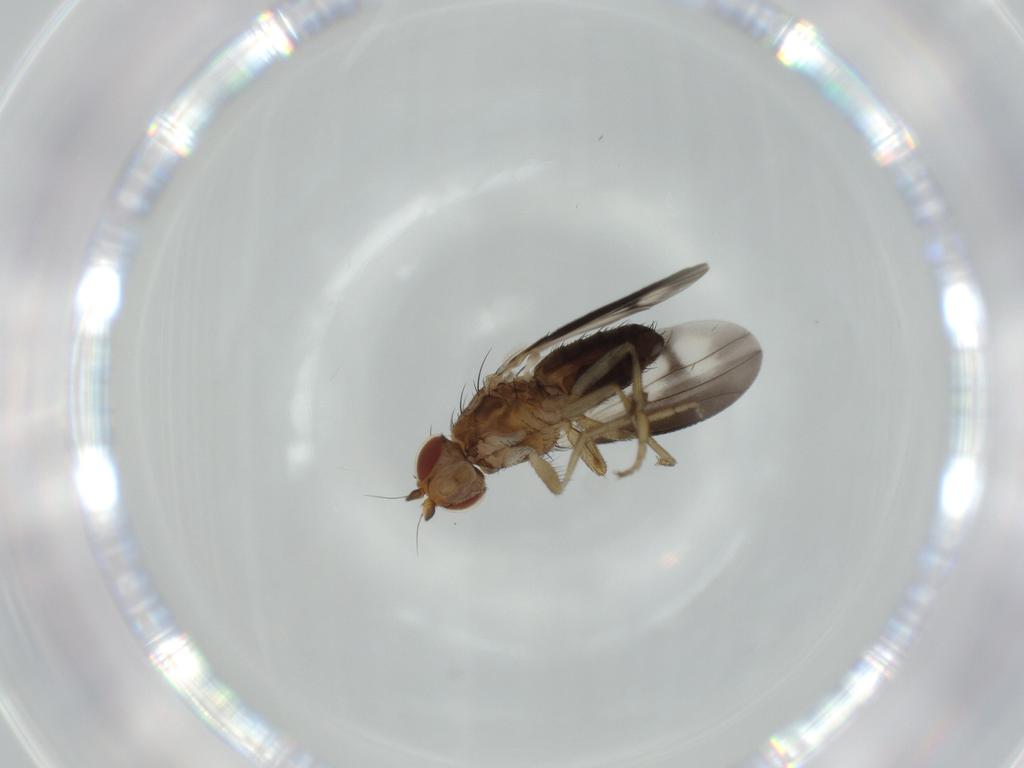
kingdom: Animalia
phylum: Arthropoda
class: Insecta
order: Diptera
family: Heleomyzidae
